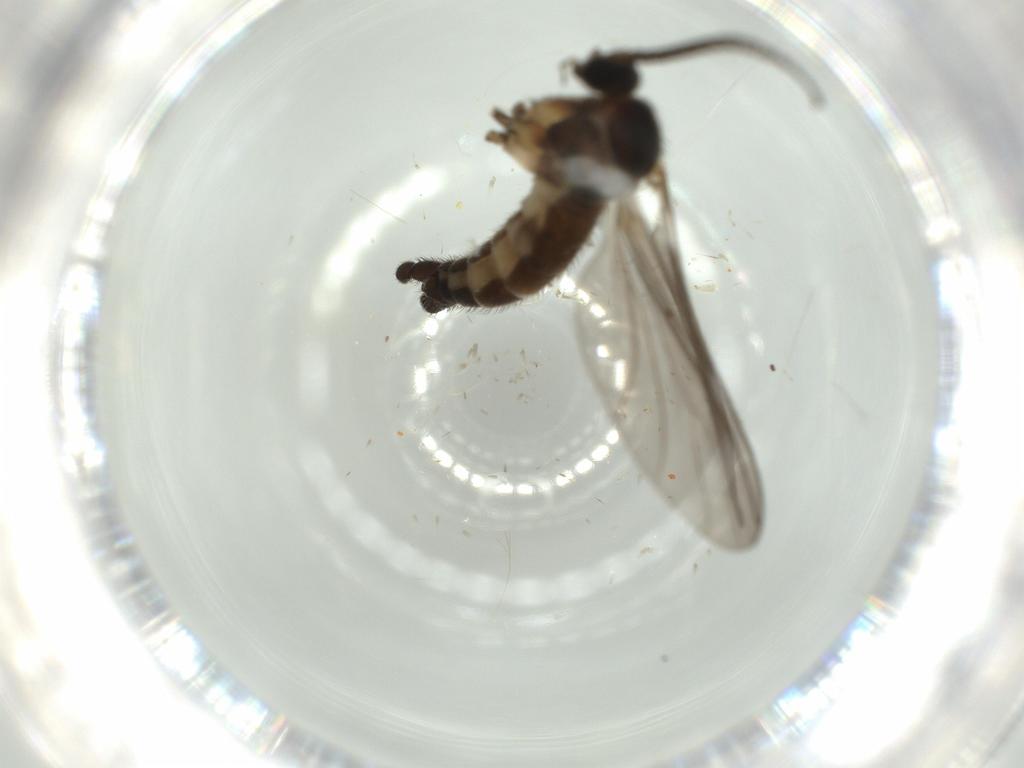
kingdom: Animalia
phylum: Arthropoda
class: Insecta
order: Diptera
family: Sciaridae
